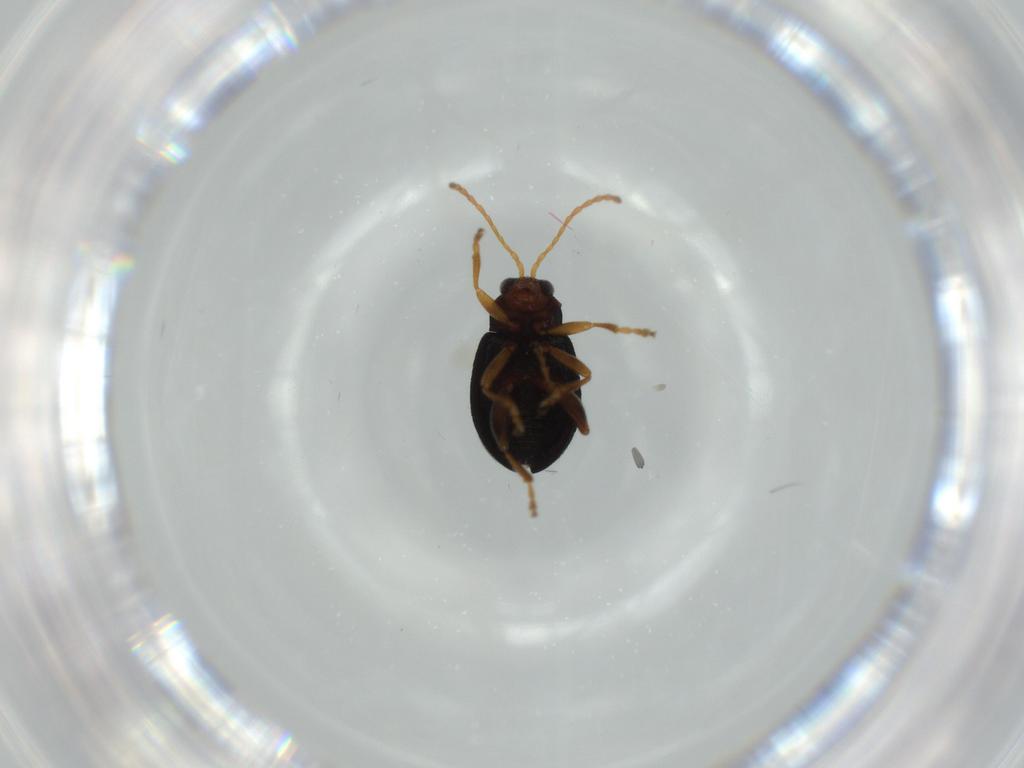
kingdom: Animalia
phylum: Arthropoda
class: Insecta
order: Coleoptera
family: Chrysomelidae
